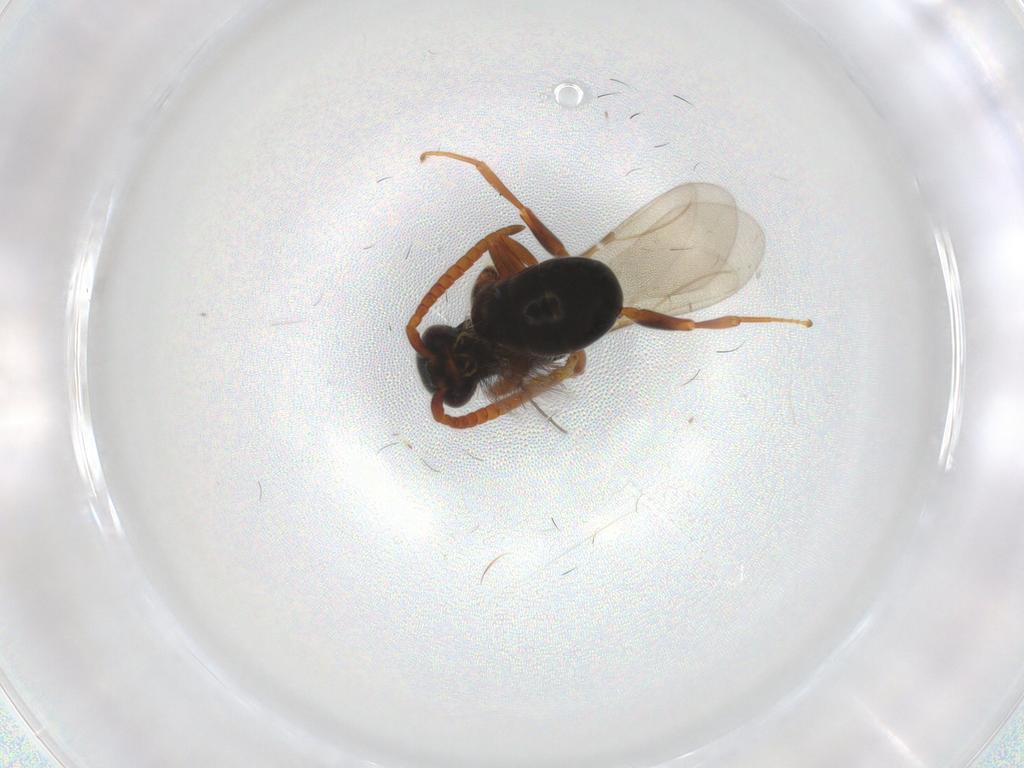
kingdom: Animalia
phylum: Arthropoda
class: Insecta
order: Hymenoptera
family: Bethylidae
